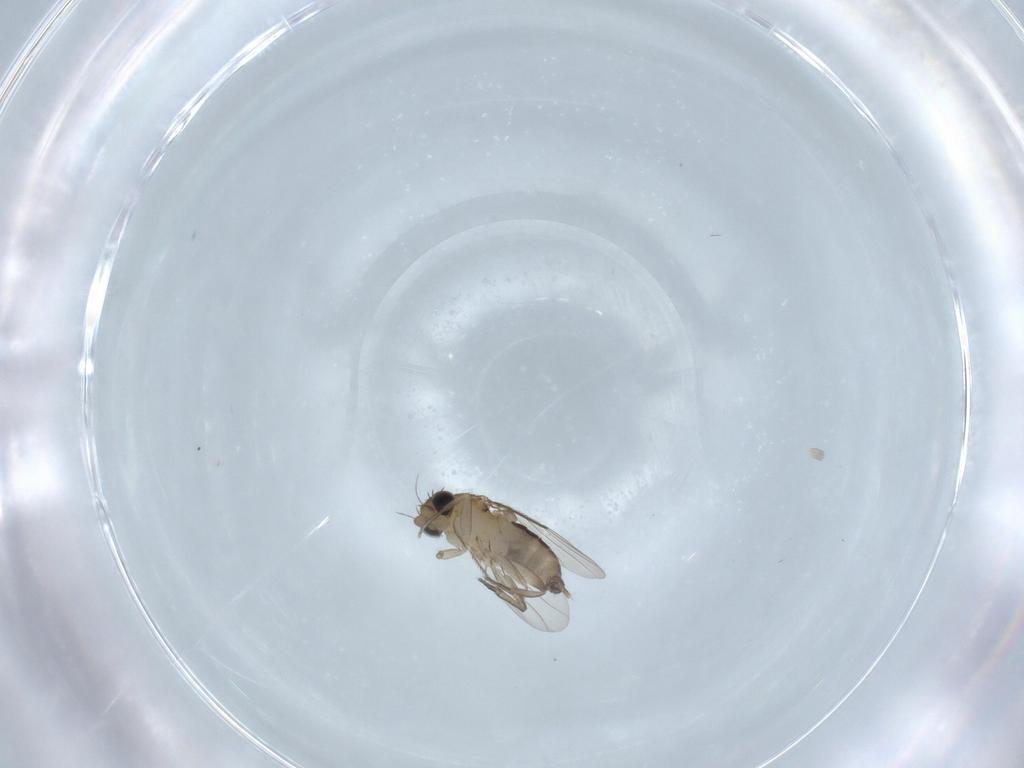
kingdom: Animalia
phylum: Arthropoda
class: Insecta
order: Diptera
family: Phoridae
